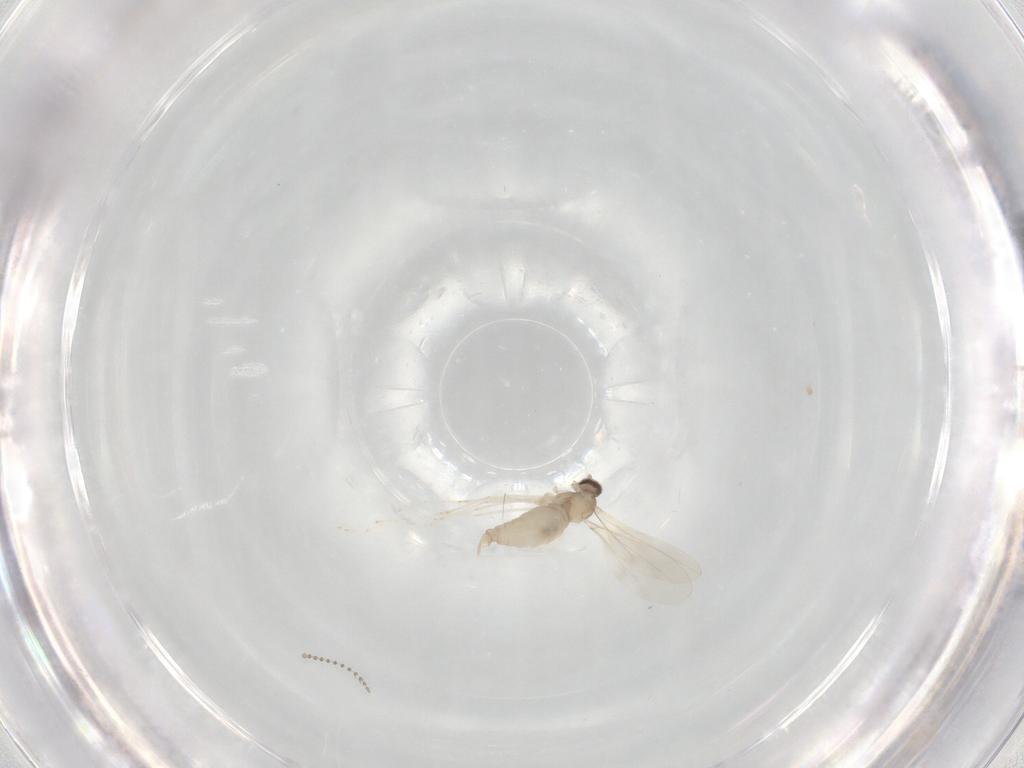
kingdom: Animalia
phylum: Arthropoda
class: Insecta
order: Diptera
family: Cecidomyiidae
